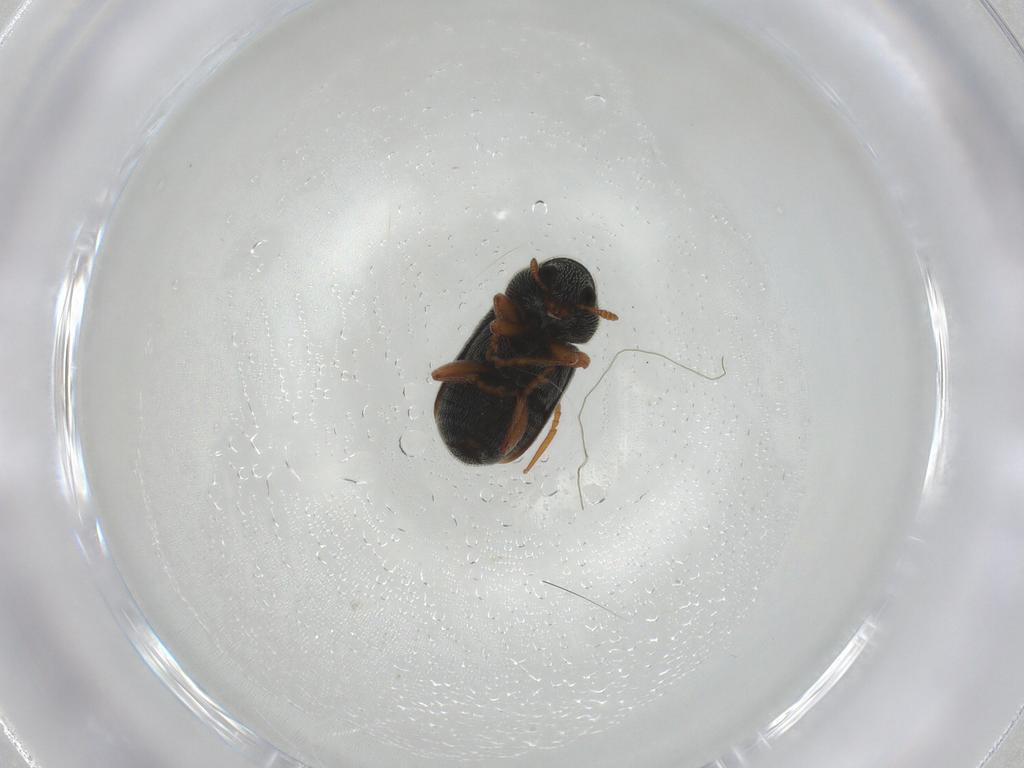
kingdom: Animalia
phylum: Arthropoda
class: Insecta
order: Coleoptera
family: Anthribidae
